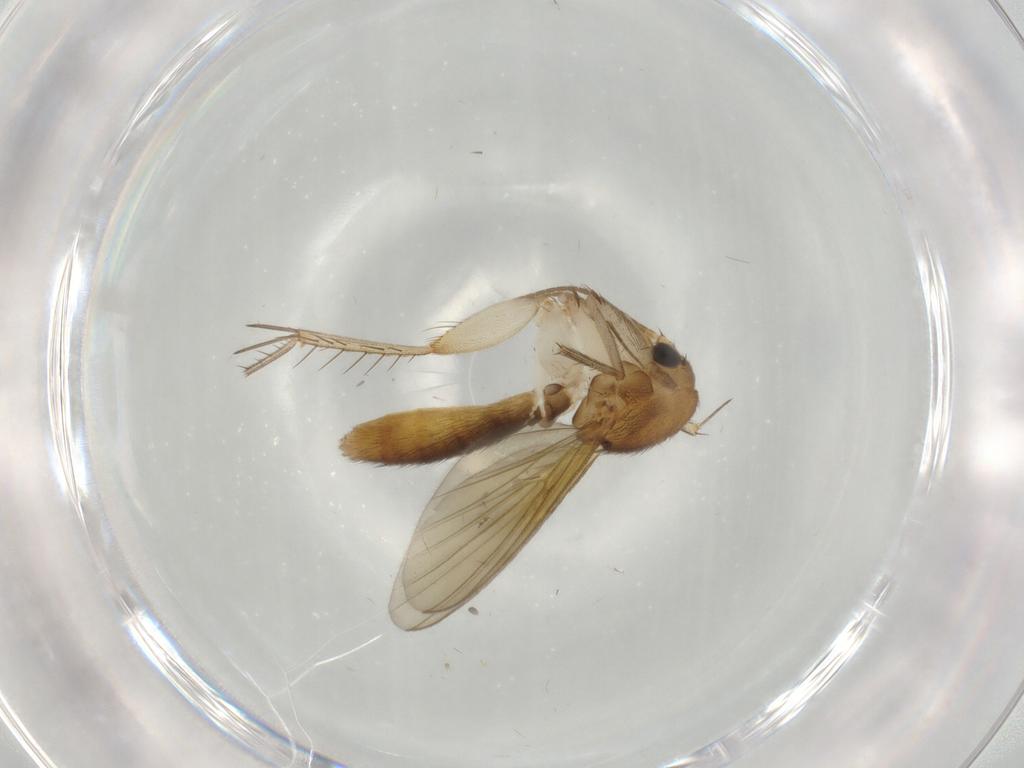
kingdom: Animalia
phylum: Arthropoda
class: Insecta
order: Diptera
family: Mycetophilidae
